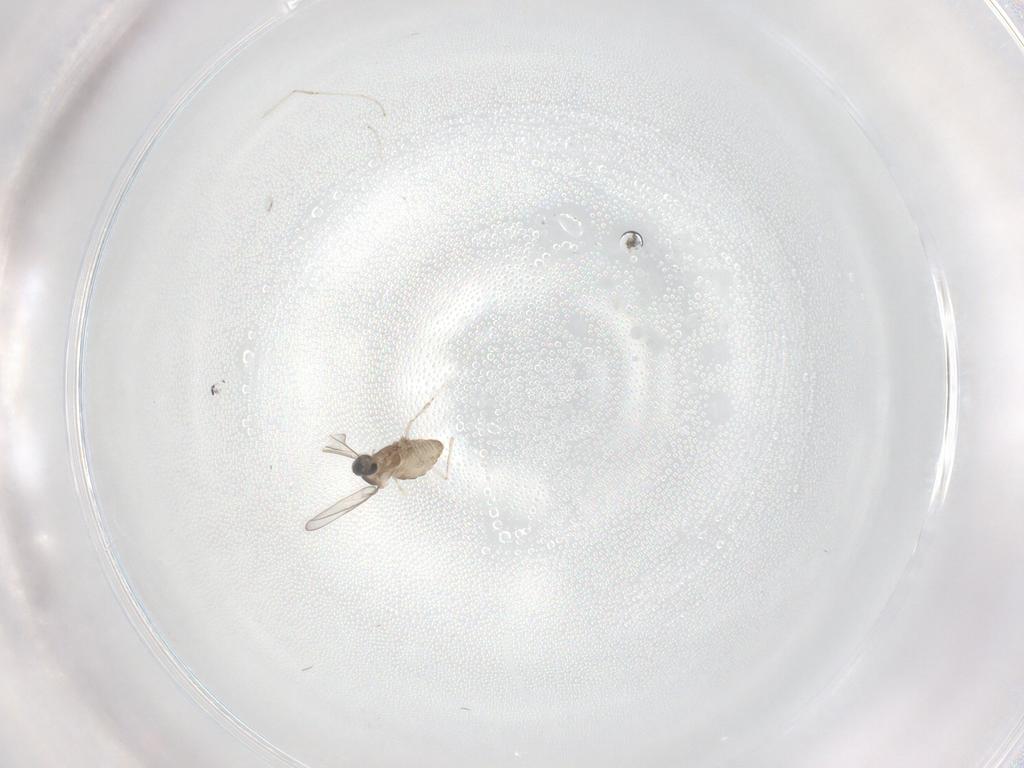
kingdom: Animalia
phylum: Arthropoda
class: Insecta
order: Diptera
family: Cecidomyiidae
